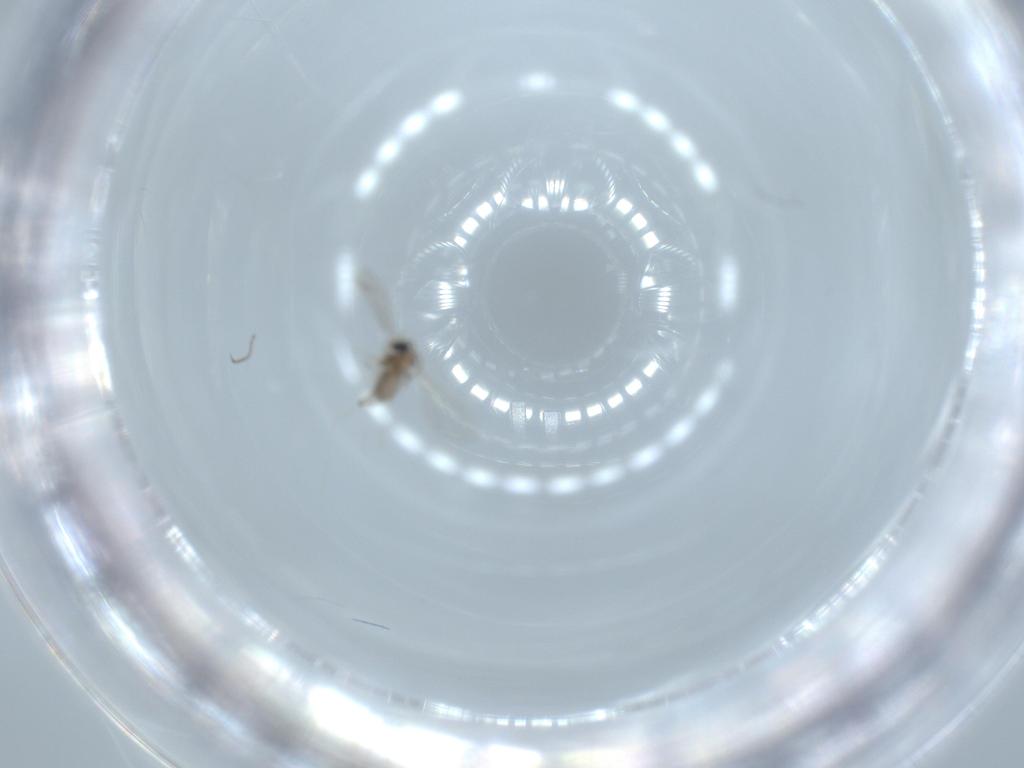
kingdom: Animalia
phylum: Arthropoda
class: Insecta
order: Diptera
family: Cecidomyiidae
